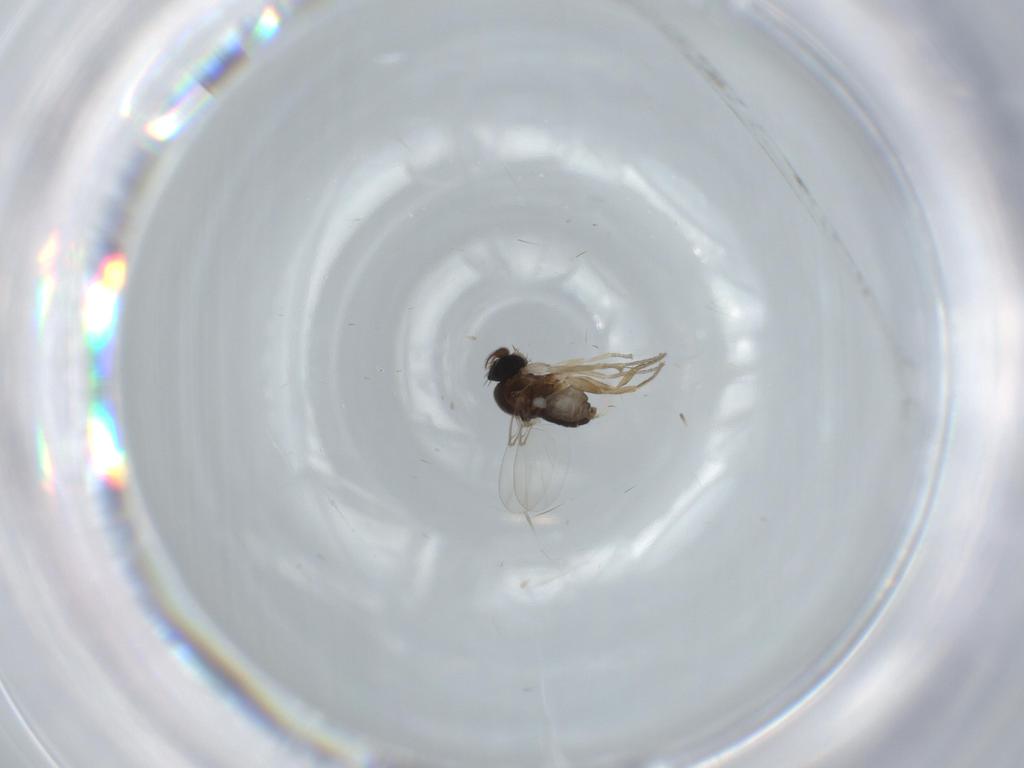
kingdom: Animalia
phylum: Arthropoda
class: Insecta
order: Diptera
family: Phoridae
